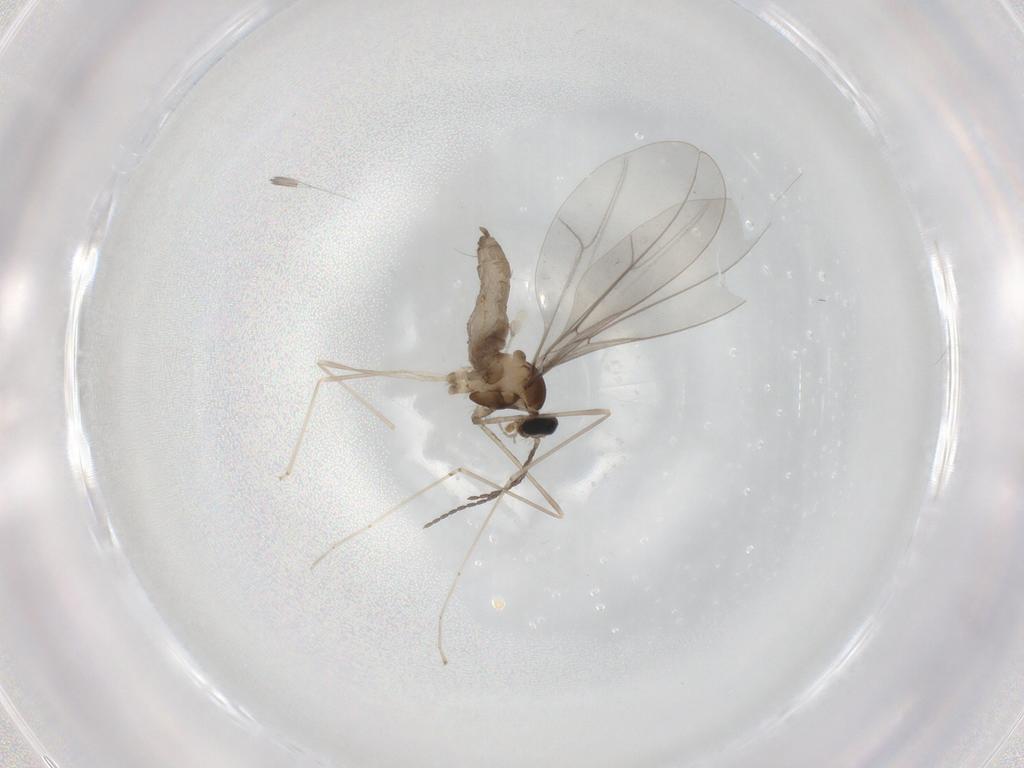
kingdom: Animalia
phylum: Arthropoda
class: Insecta
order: Diptera
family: Cecidomyiidae
